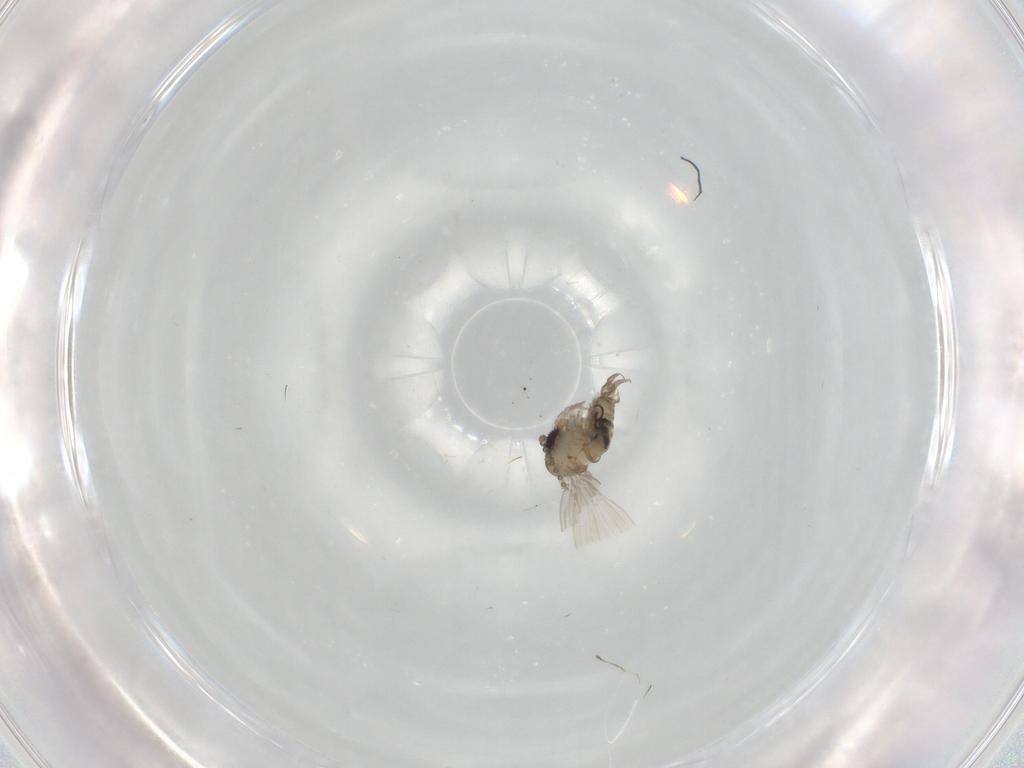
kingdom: Animalia
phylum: Arthropoda
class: Insecta
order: Diptera
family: Psychodidae
